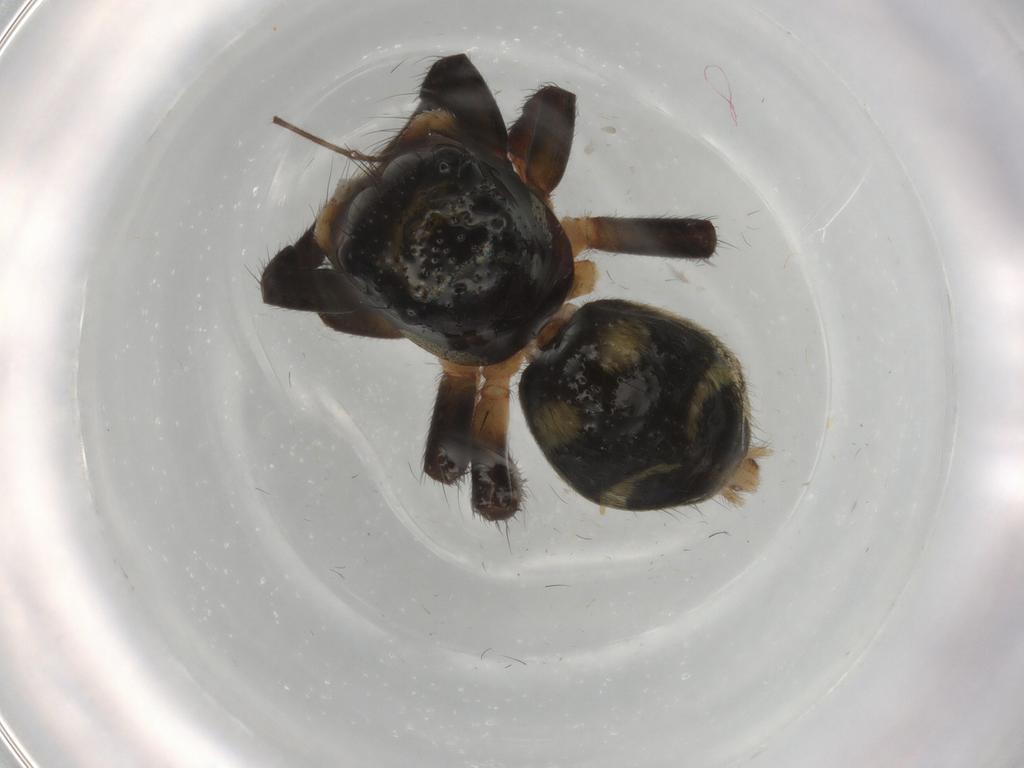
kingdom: Animalia
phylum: Arthropoda
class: Arachnida
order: Araneae
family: Salticidae
